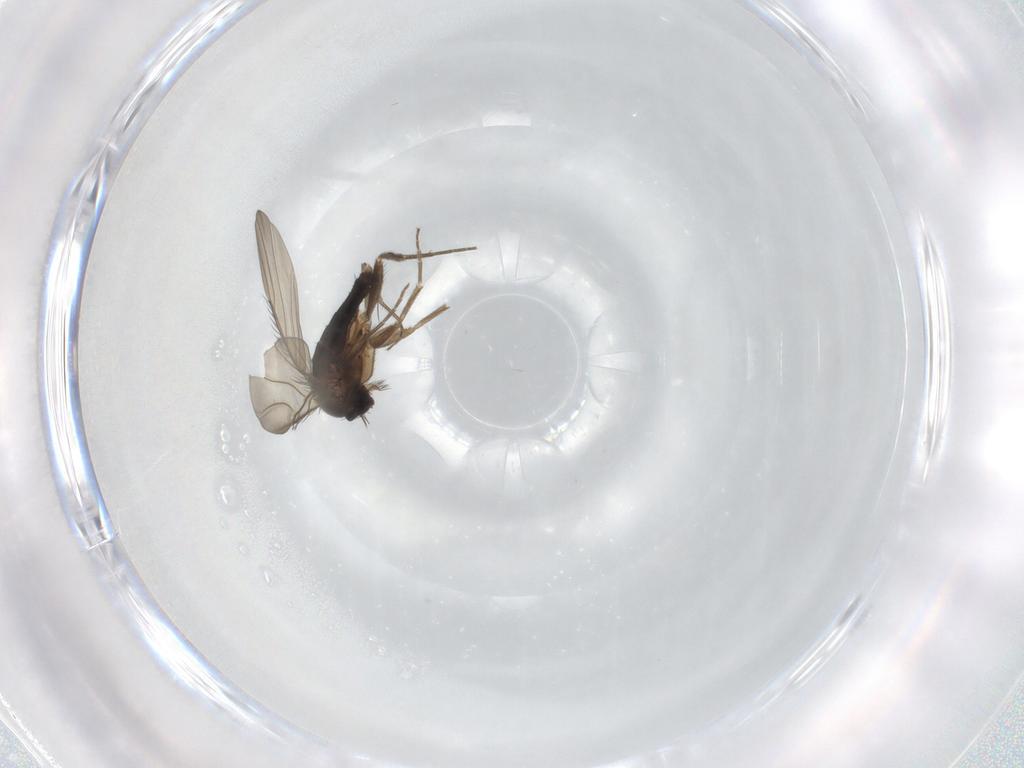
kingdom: Animalia
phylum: Arthropoda
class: Insecta
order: Diptera
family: Phoridae
